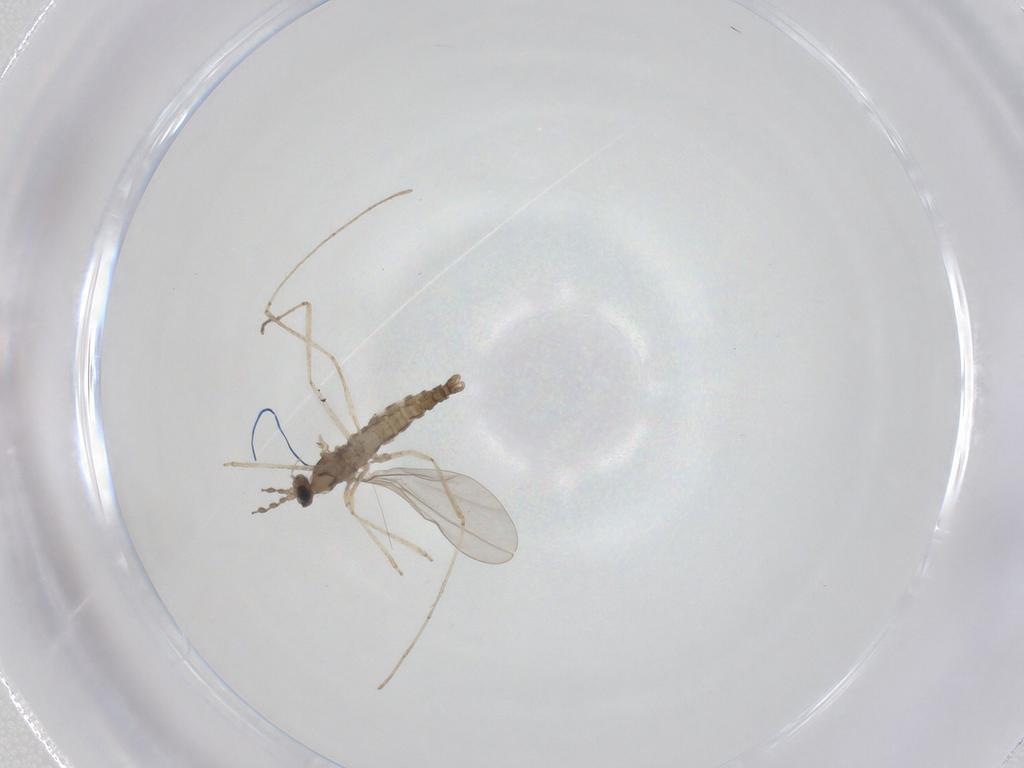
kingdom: Animalia
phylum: Arthropoda
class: Insecta
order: Diptera
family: Cecidomyiidae
